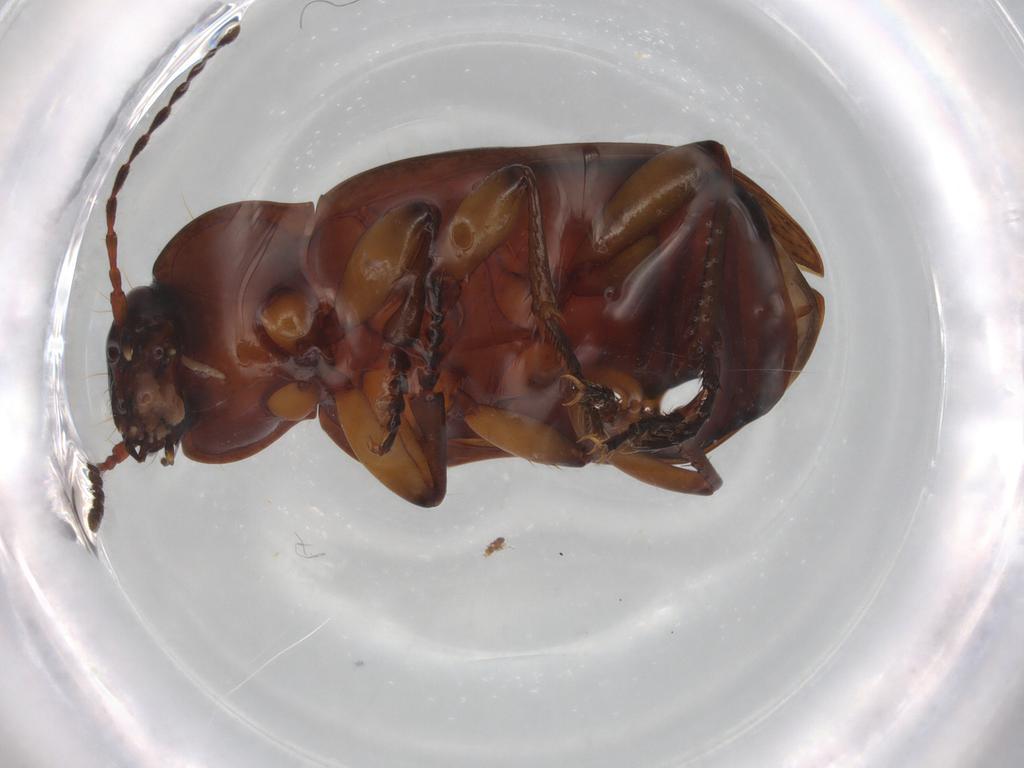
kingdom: Animalia
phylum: Arthropoda
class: Insecta
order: Coleoptera
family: Carabidae
